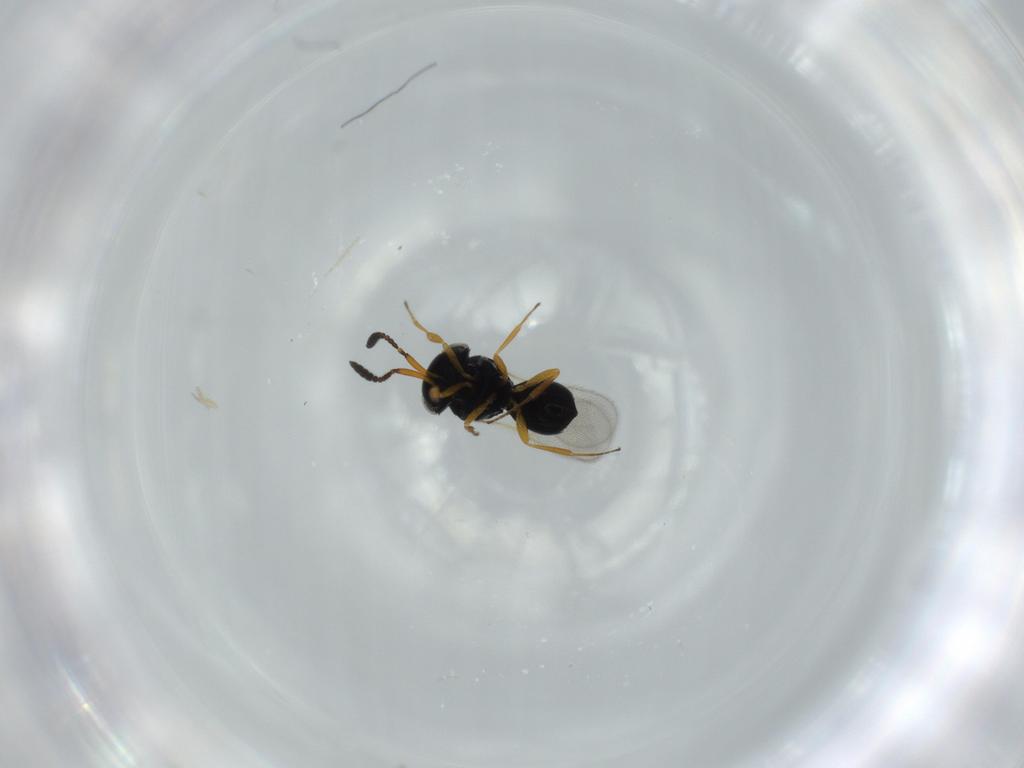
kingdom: Animalia
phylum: Arthropoda
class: Insecta
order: Hymenoptera
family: Scelionidae
